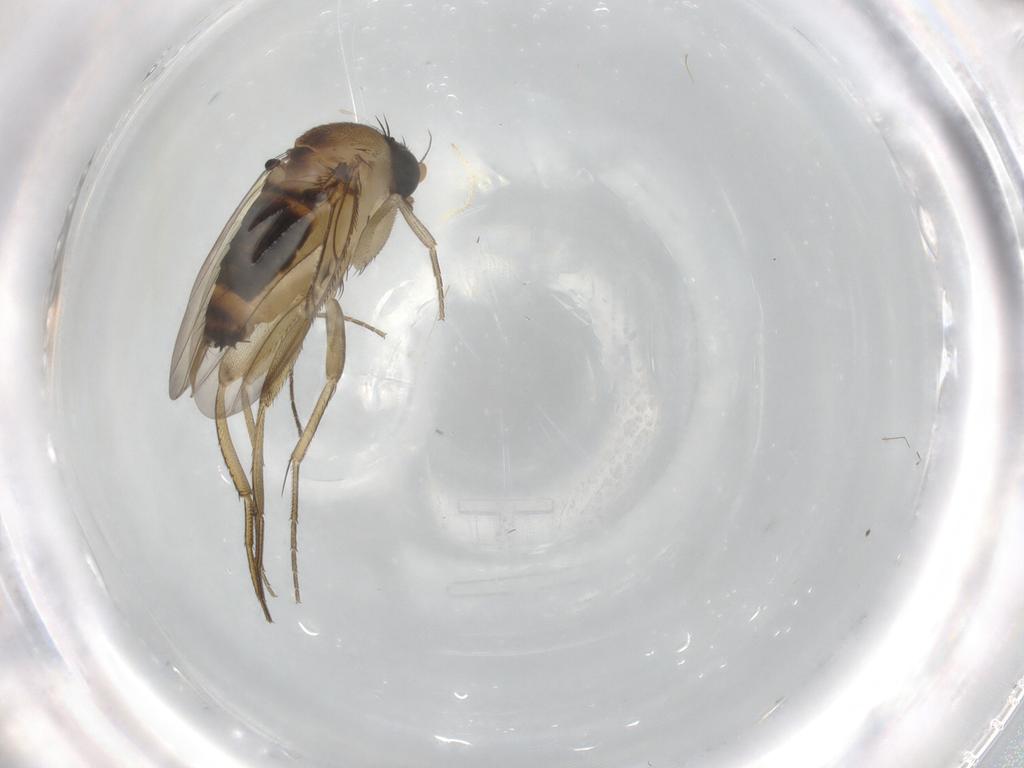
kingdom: Animalia
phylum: Arthropoda
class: Insecta
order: Diptera
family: Phoridae
